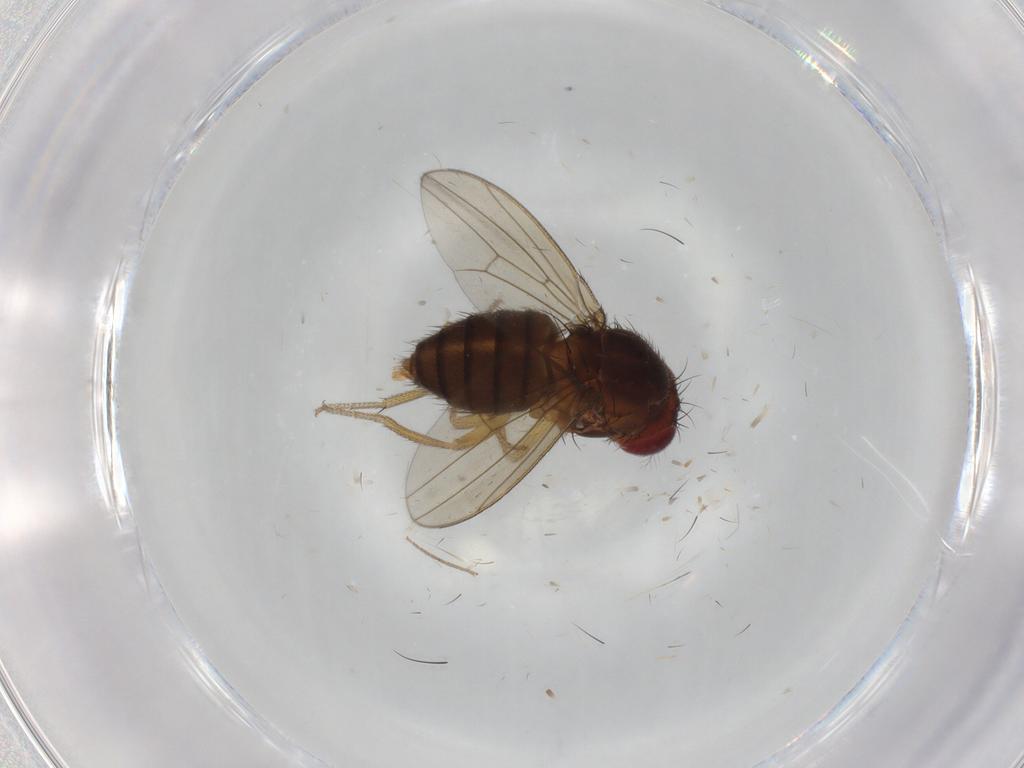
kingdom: Animalia
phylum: Arthropoda
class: Insecta
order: Diptera
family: Drosophilidae
